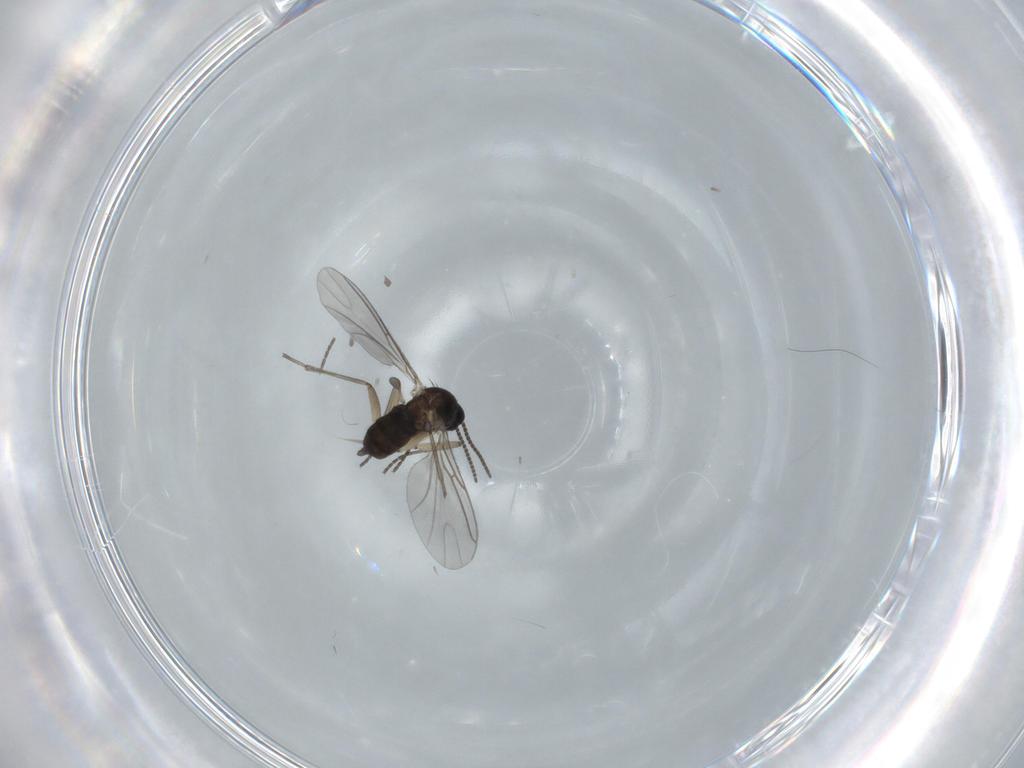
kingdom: Animalia
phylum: Arthropoda
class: Insecta
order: Diptera
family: Sciaridae
